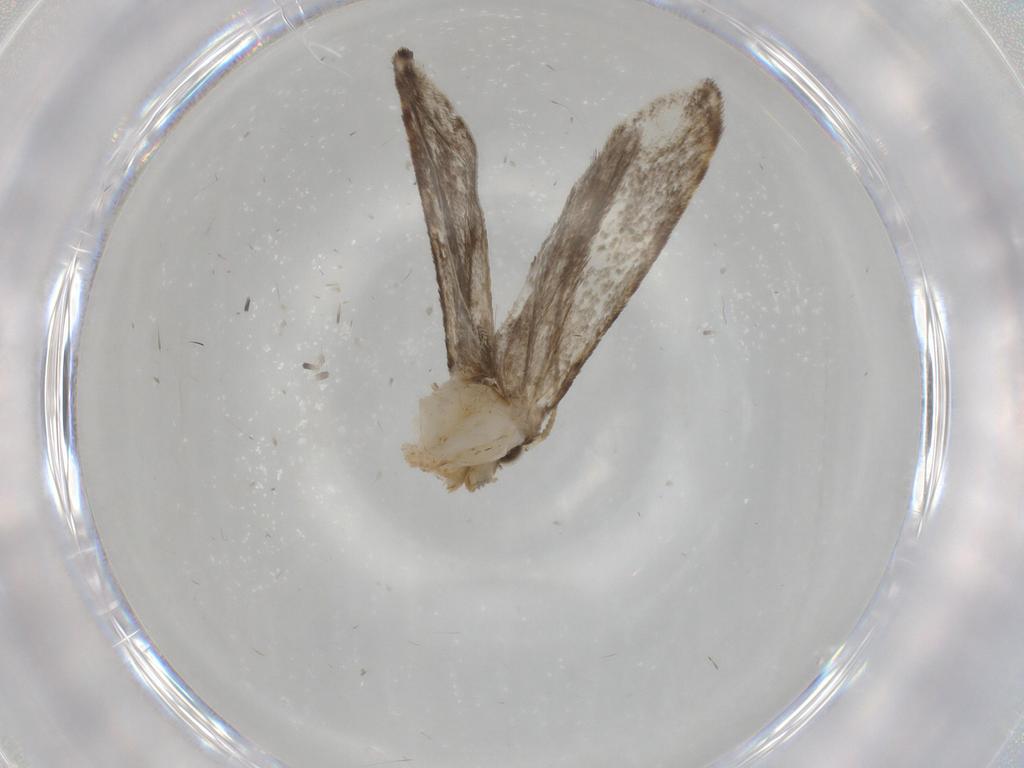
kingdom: Animalia
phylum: Arthropoda
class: Insecta
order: Lepidoptera
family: Tineidae
